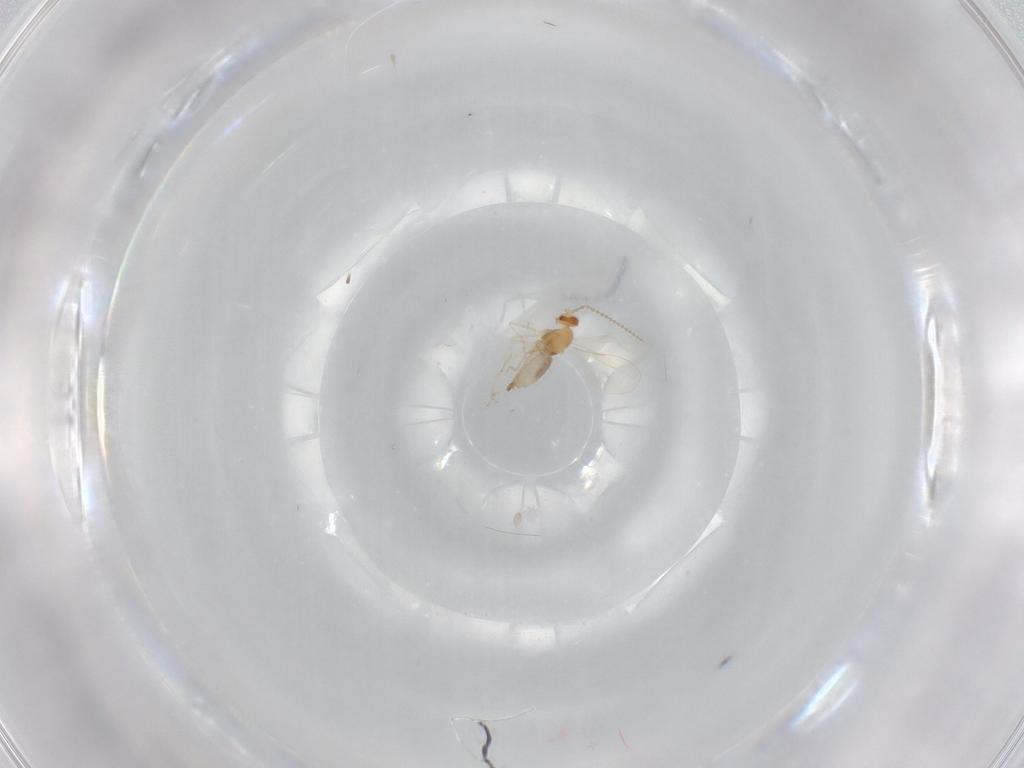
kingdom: Animalia
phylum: Arthropoda
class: Insecta
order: Diptera
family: Cecidomyiidae
